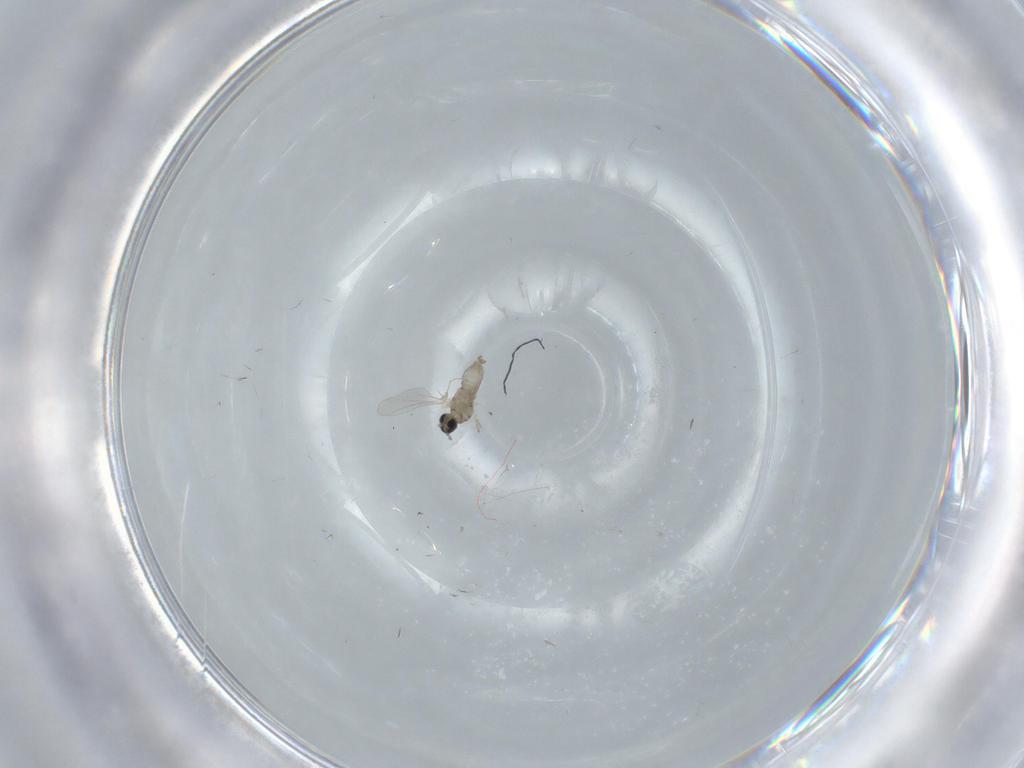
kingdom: Animalia
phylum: Arthropoda
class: Insecta
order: Diptera
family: Cecidomyiidae
